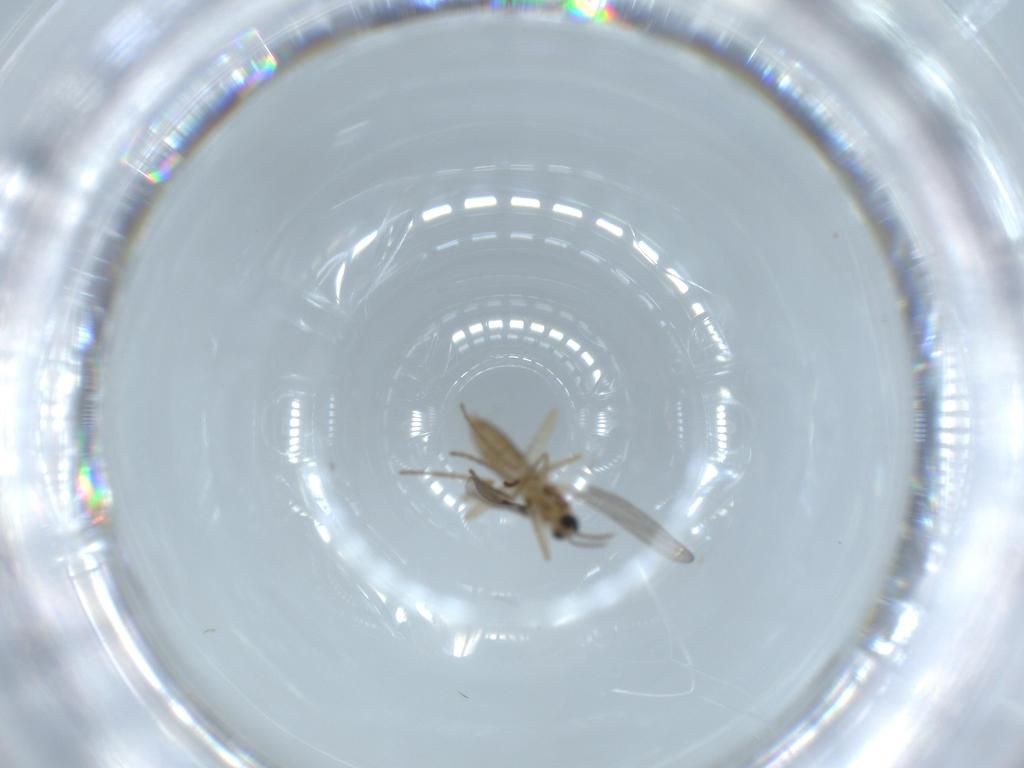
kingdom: Animalia
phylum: Arthropoda
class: Insecta
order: Diptera
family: Cecidomyiidae
